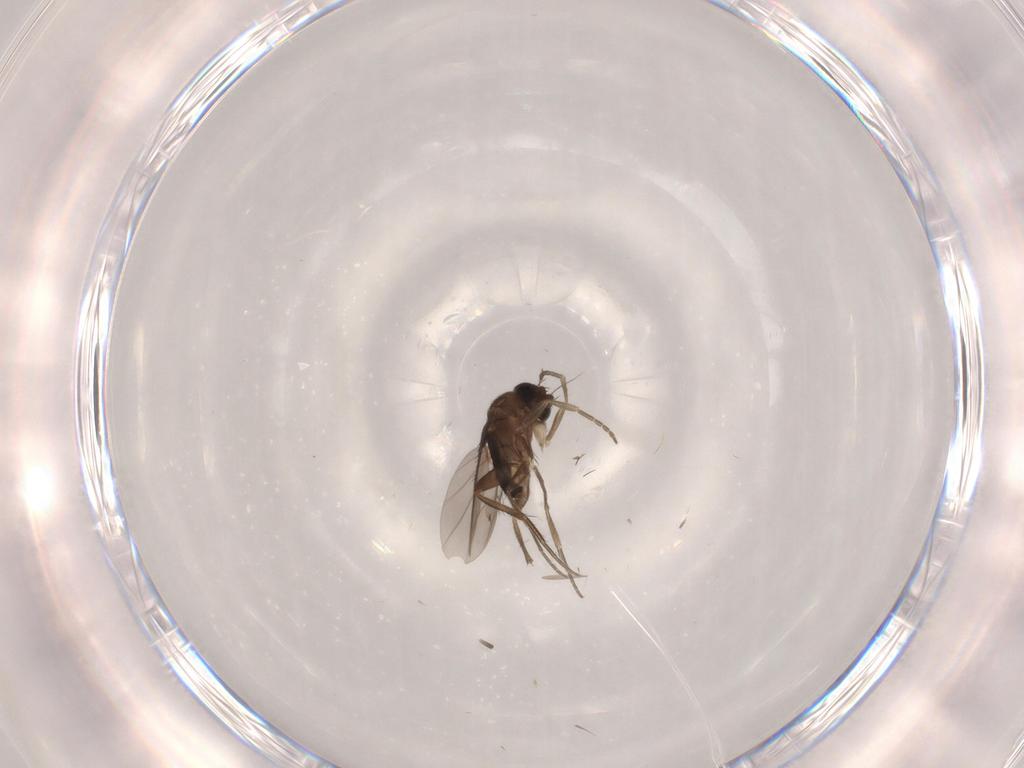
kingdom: Animalia
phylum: Arthropoda
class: Insecta
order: Diptera
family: Phoridae
